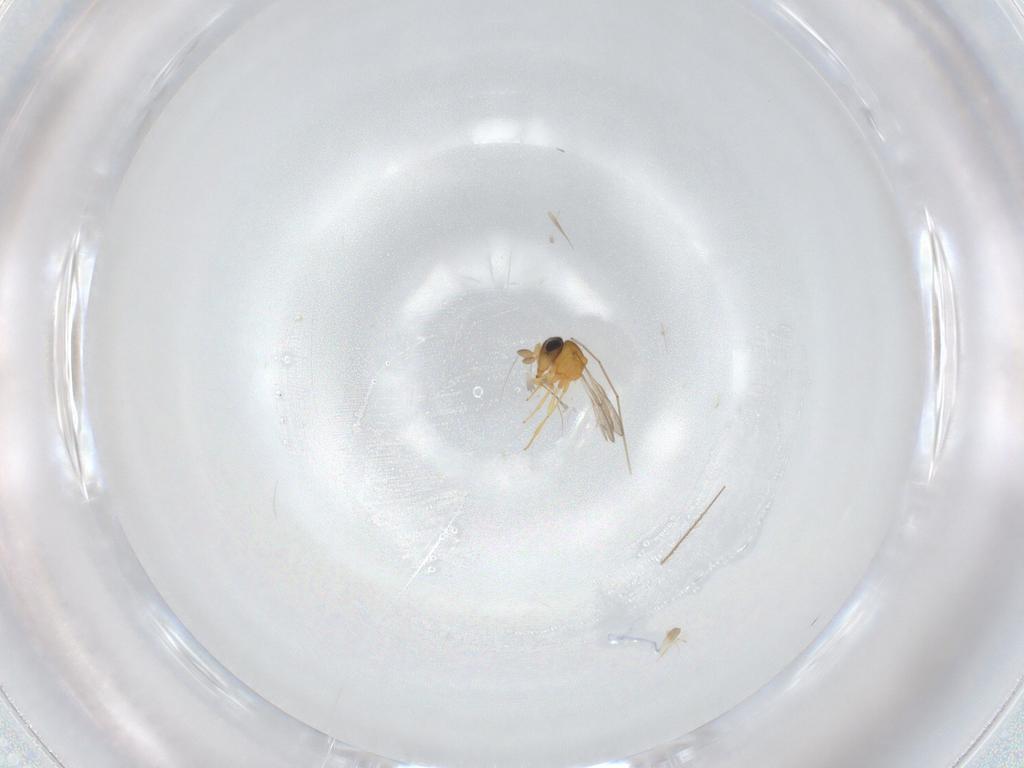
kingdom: Animalia
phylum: Arthropoda
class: Insecta
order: Hymenoptera
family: Scelionidae
